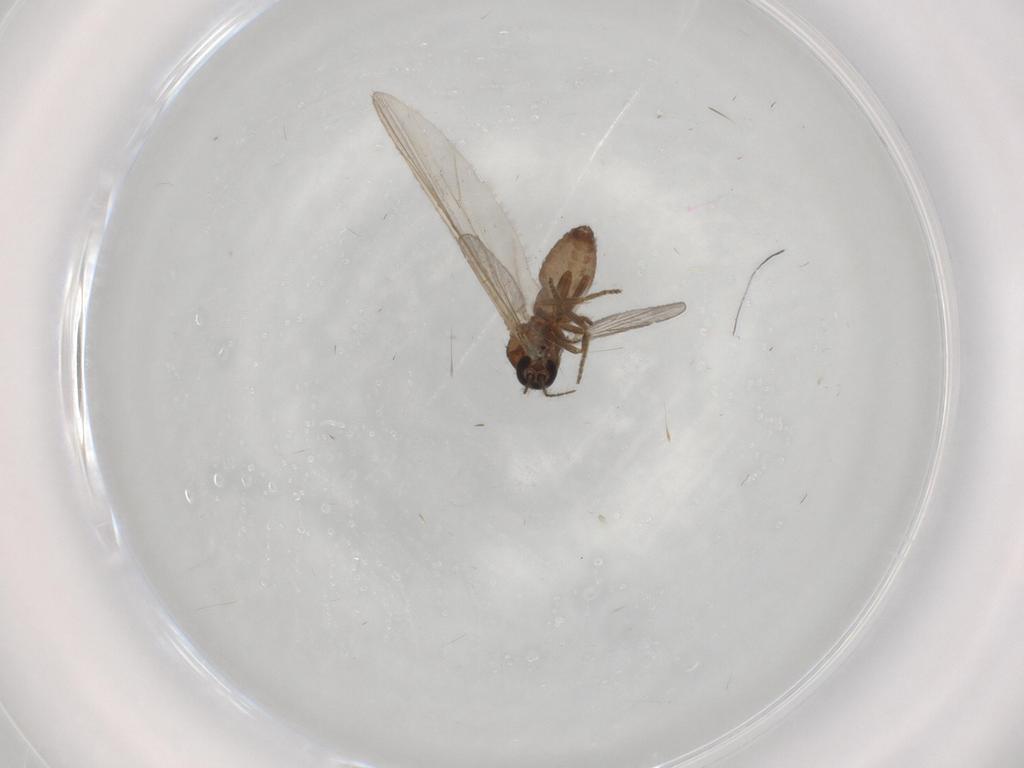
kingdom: Animalia
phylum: Arthropoda
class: Insecta
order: Diptera
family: Ceratopogonidae
